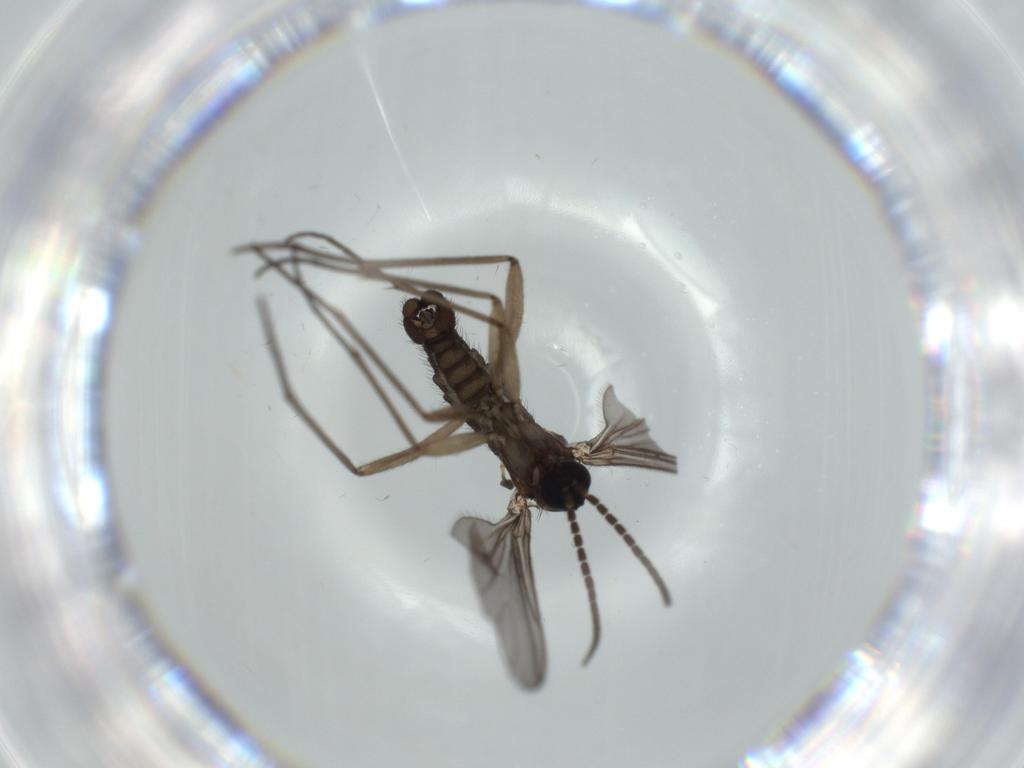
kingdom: Animalia
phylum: Arthropoda
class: Insecta
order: Diptera
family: Sciaridae
